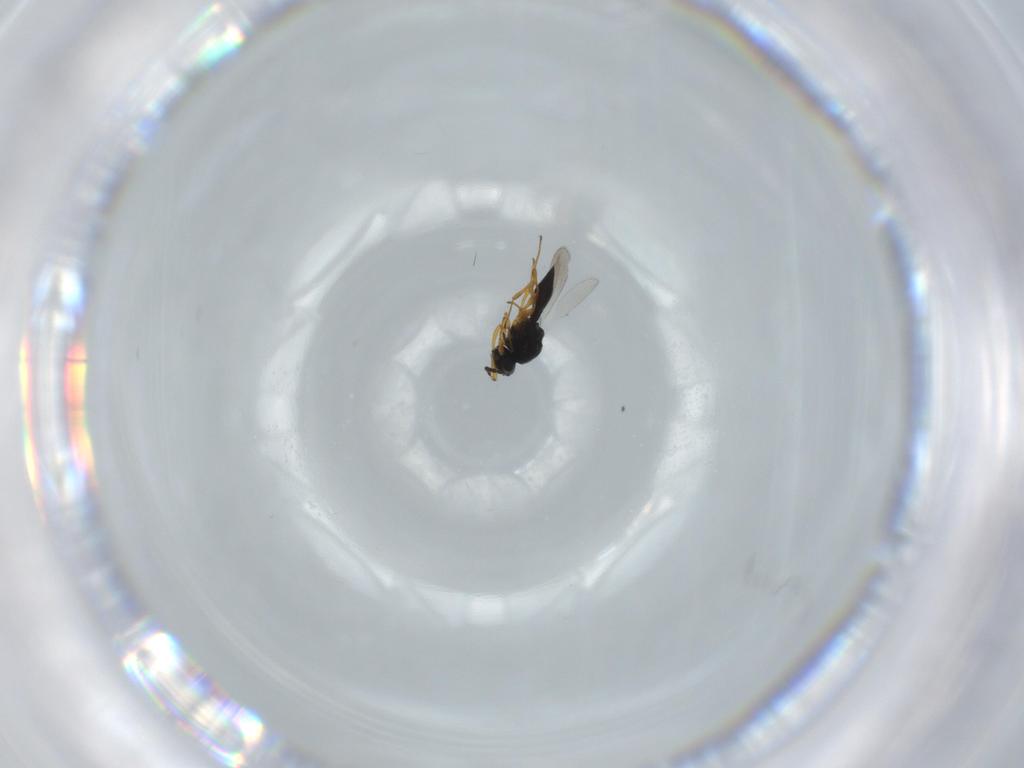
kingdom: Animalia
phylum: Arthropoda
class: Insecta
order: Hymenoptera
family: Platygastridae
